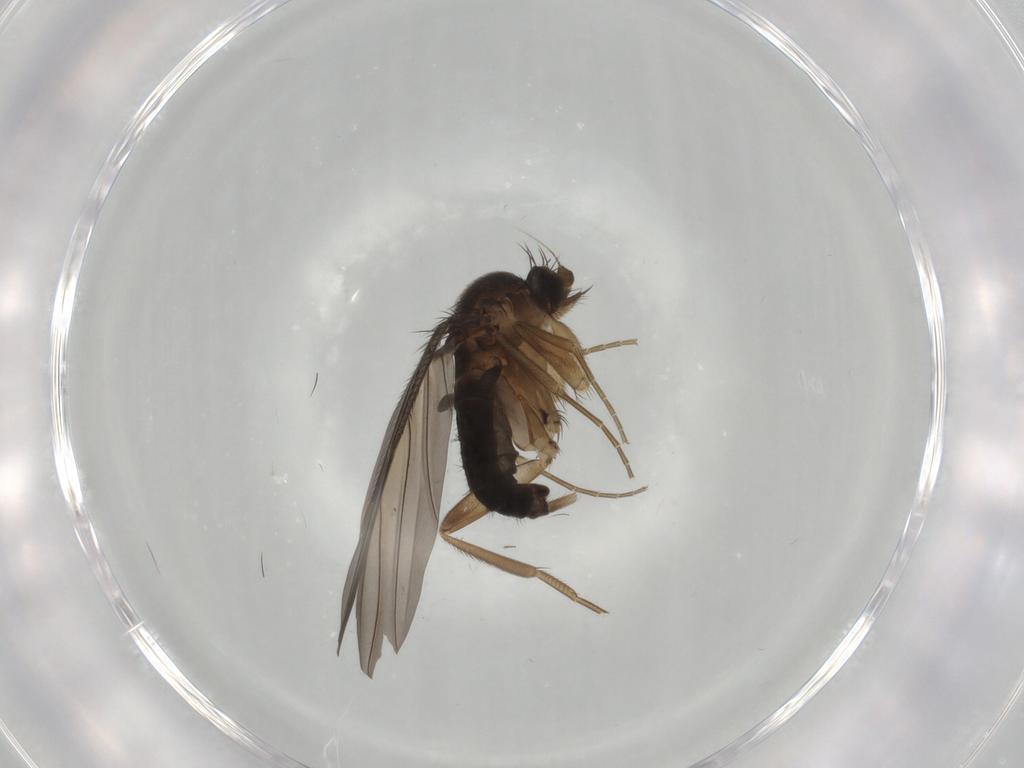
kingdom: Animalia
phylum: Arthropoda
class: Insecta
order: Diptera
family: Phoridae
